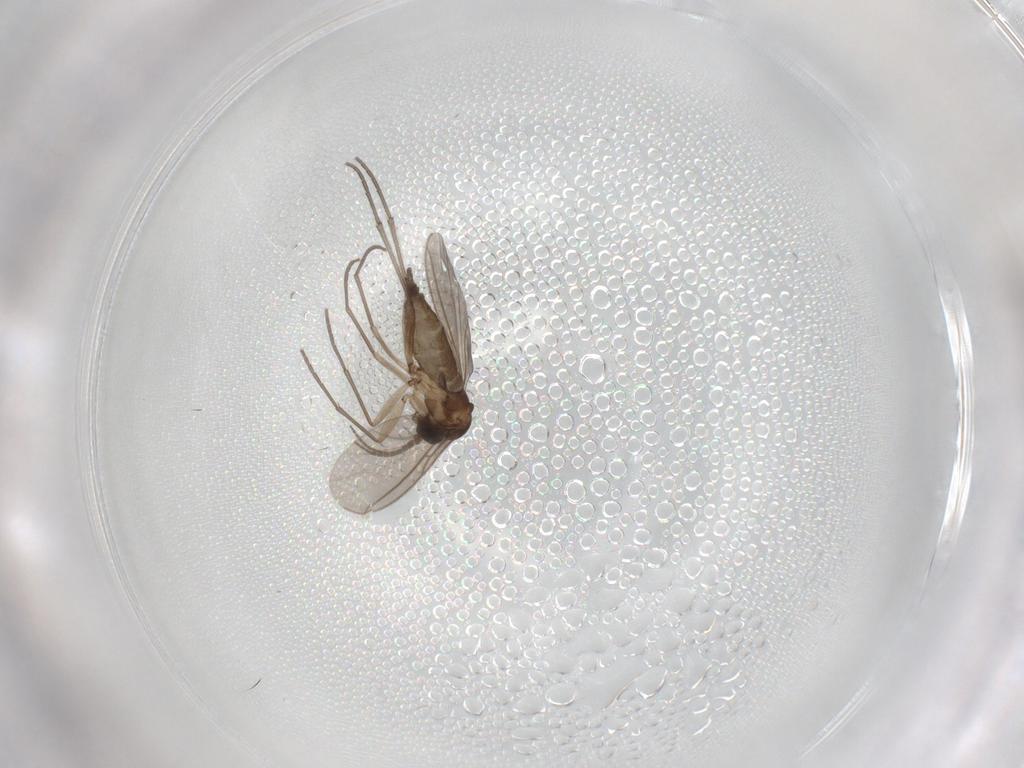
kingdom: Animalia
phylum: Arthropoda
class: Insecta
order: Diptera
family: Sciaridae
